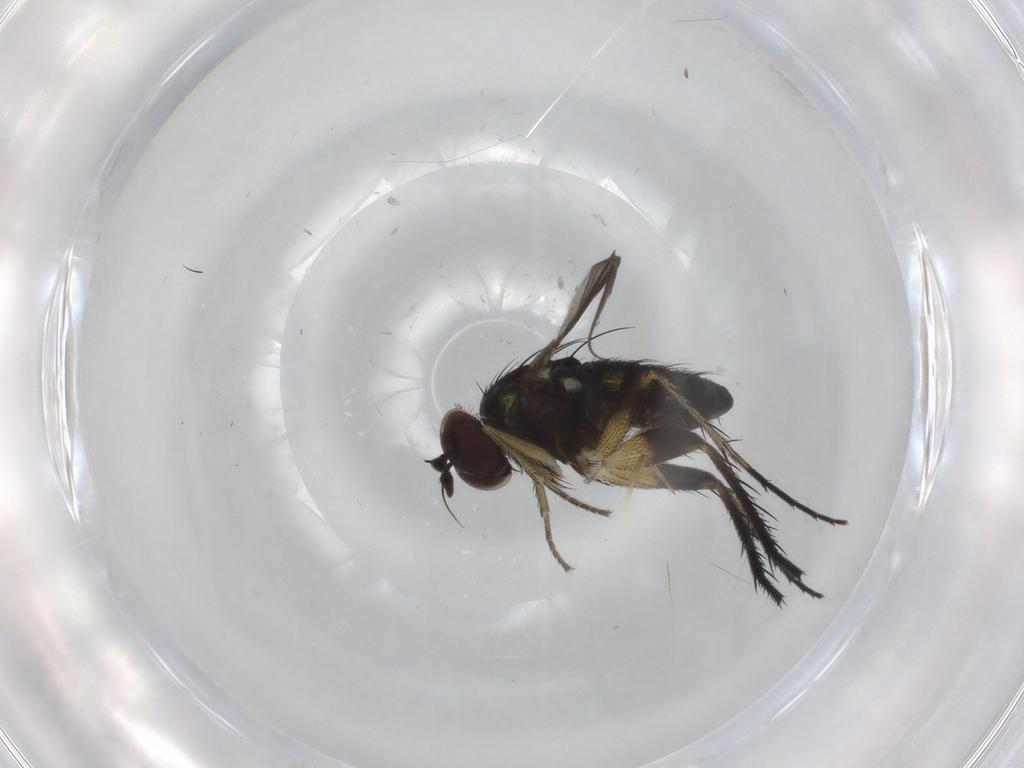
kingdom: Animalia
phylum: Arthropoda
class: Insecta
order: Diptera
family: Dolichopodidae
